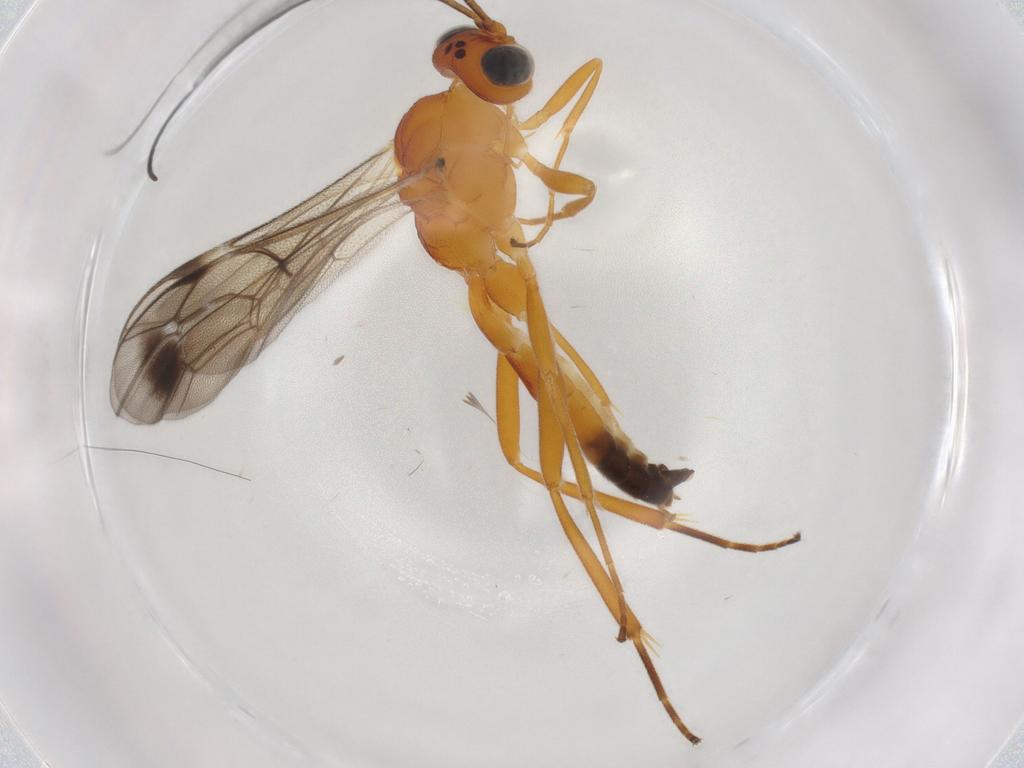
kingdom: Animalia
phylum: Arthropoda
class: Insecta
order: Hymenoptera
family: Ichneumonidae
